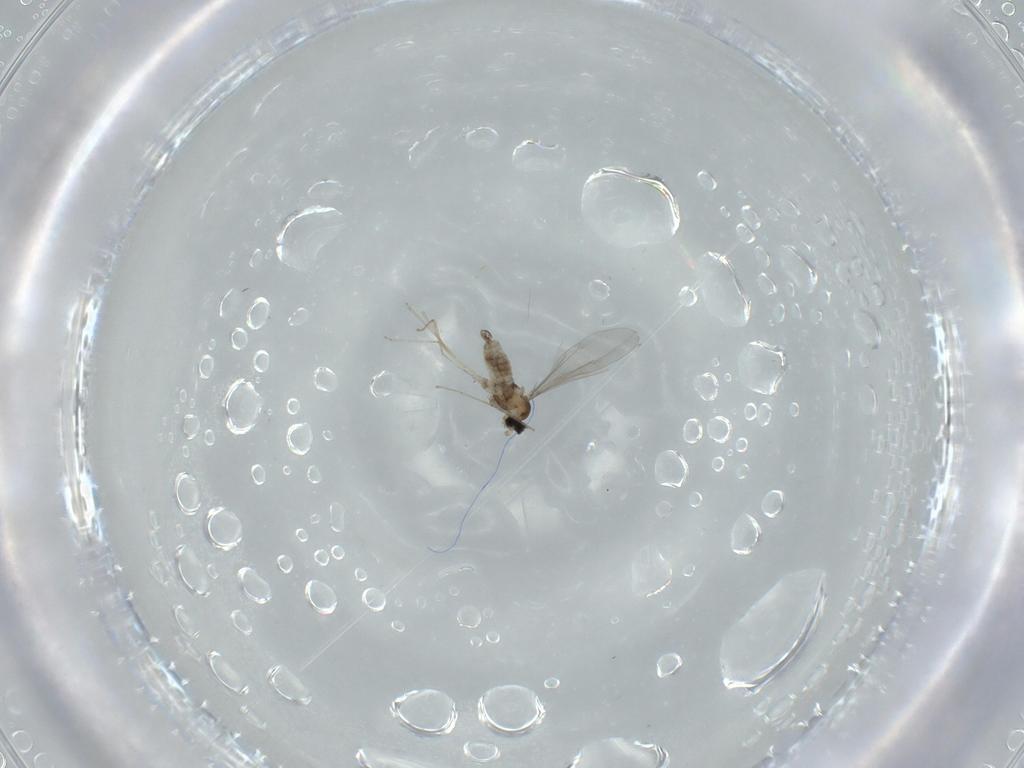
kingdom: Animalia
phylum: Arthropoda
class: Insecta
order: Diptera
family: Cecidomyiidae
